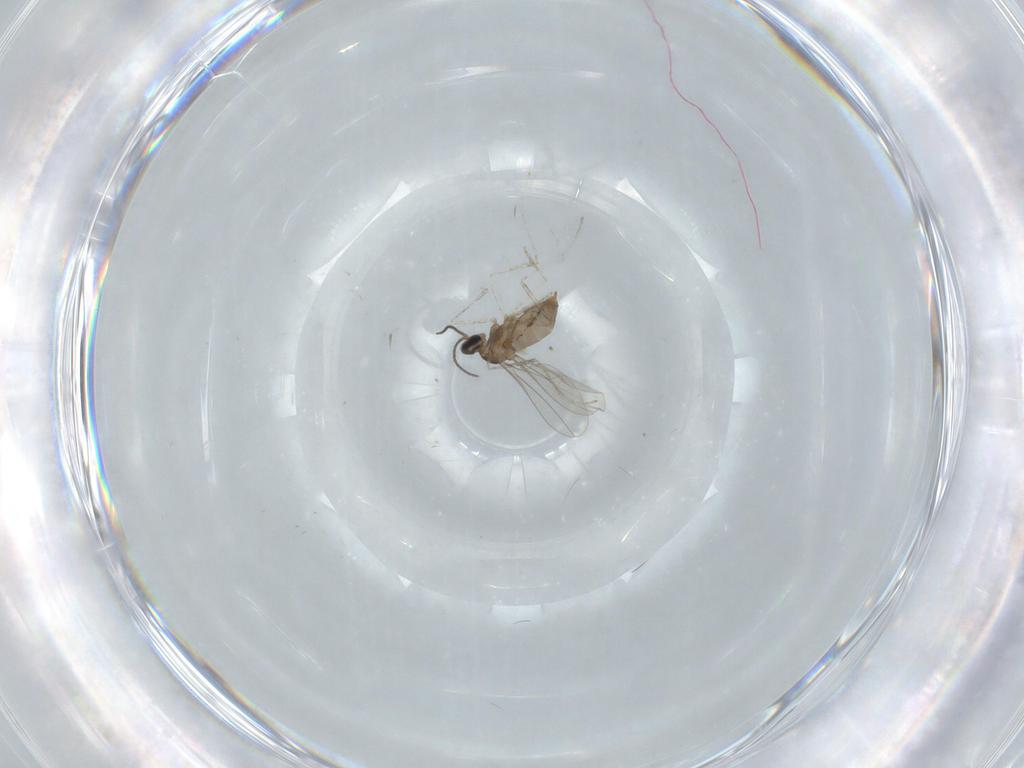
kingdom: Animalia
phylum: Arthropoda
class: Insecta
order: Diptera
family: Cecidomyiidae
